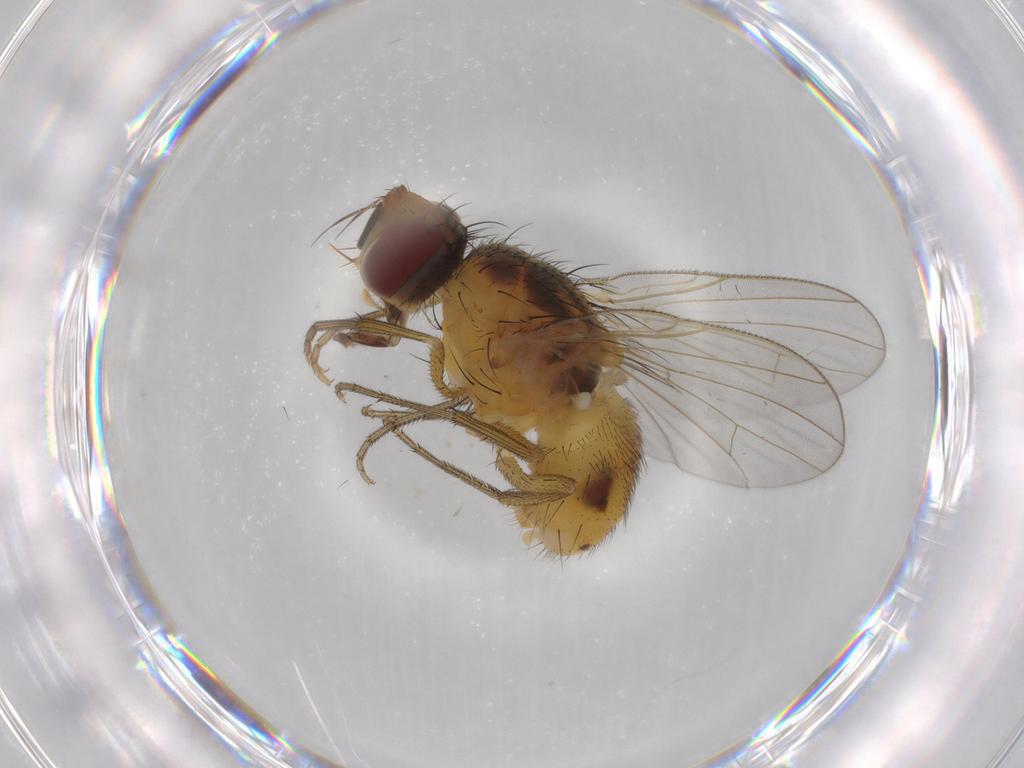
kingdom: Animalia
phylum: Arthropoda
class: Insecta
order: Diptera
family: Muscidae
